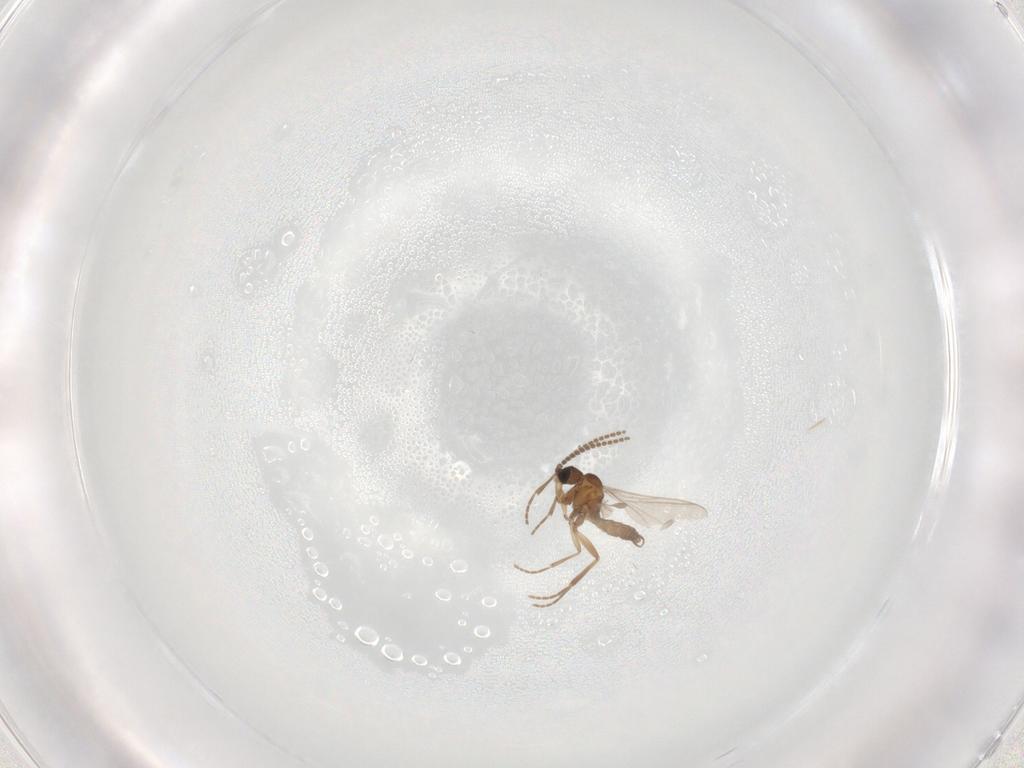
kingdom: Animalia
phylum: Arthropoda
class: Insecta
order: Diptera
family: Sciaridae
